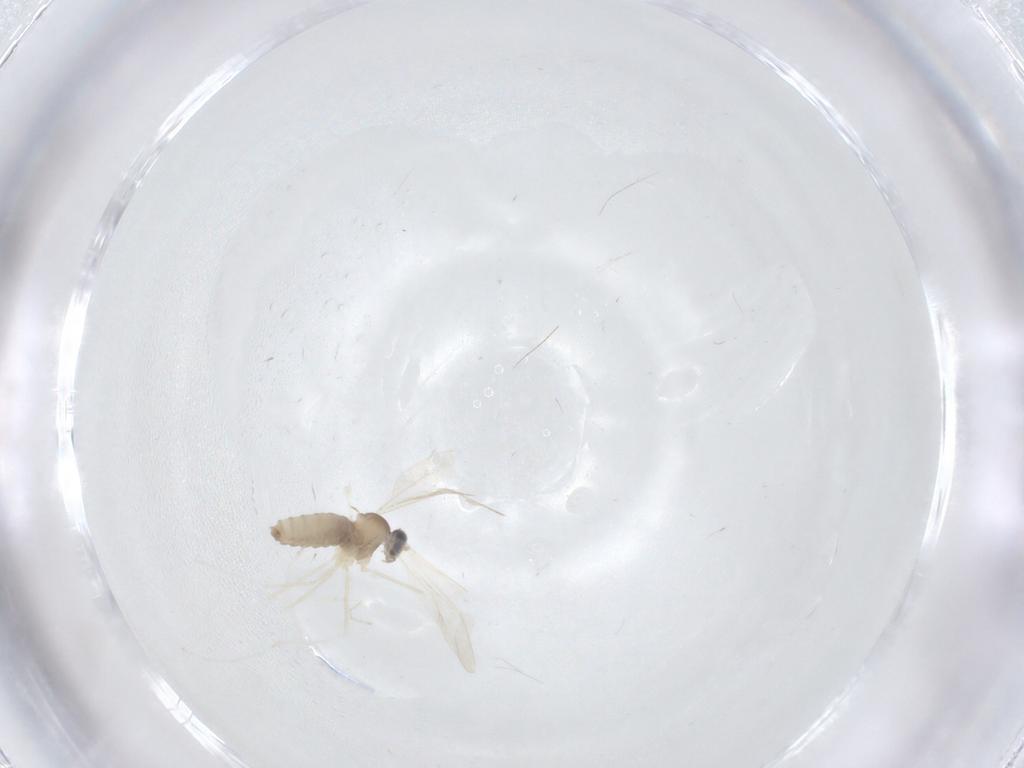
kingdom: Animalia
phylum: Arthropoda
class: Insecta
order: Diptera
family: Cecidomyiidae
